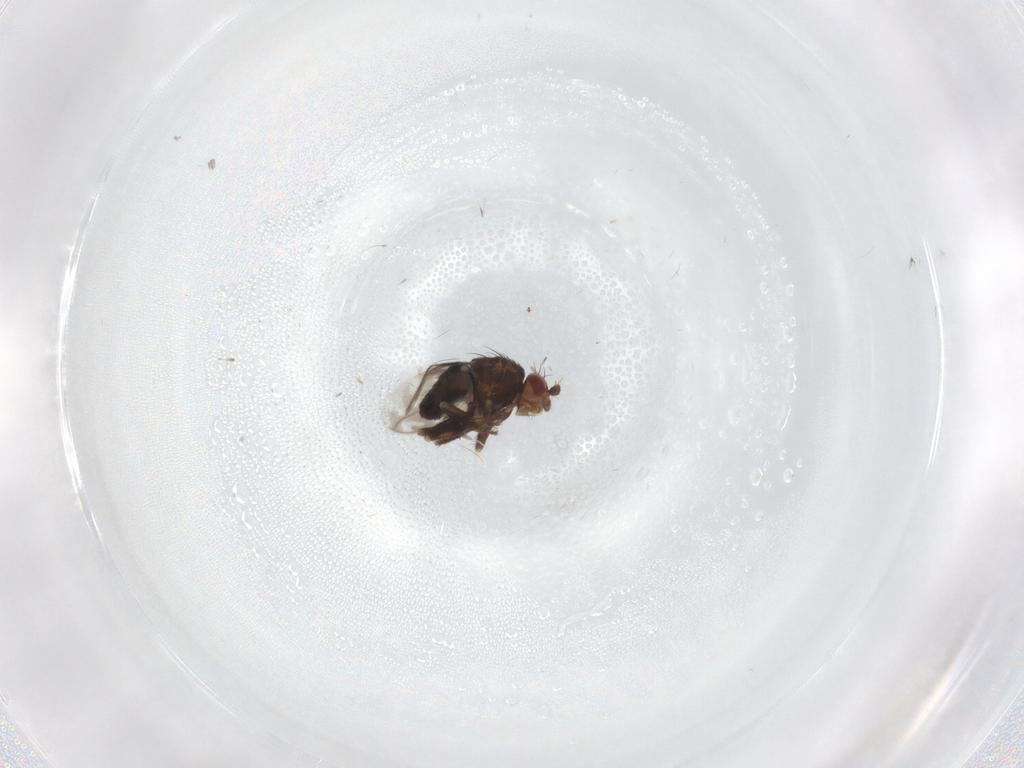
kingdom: Animalia
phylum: Arthropoda
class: Insecta
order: Diptera
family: Sphaeroceridae
